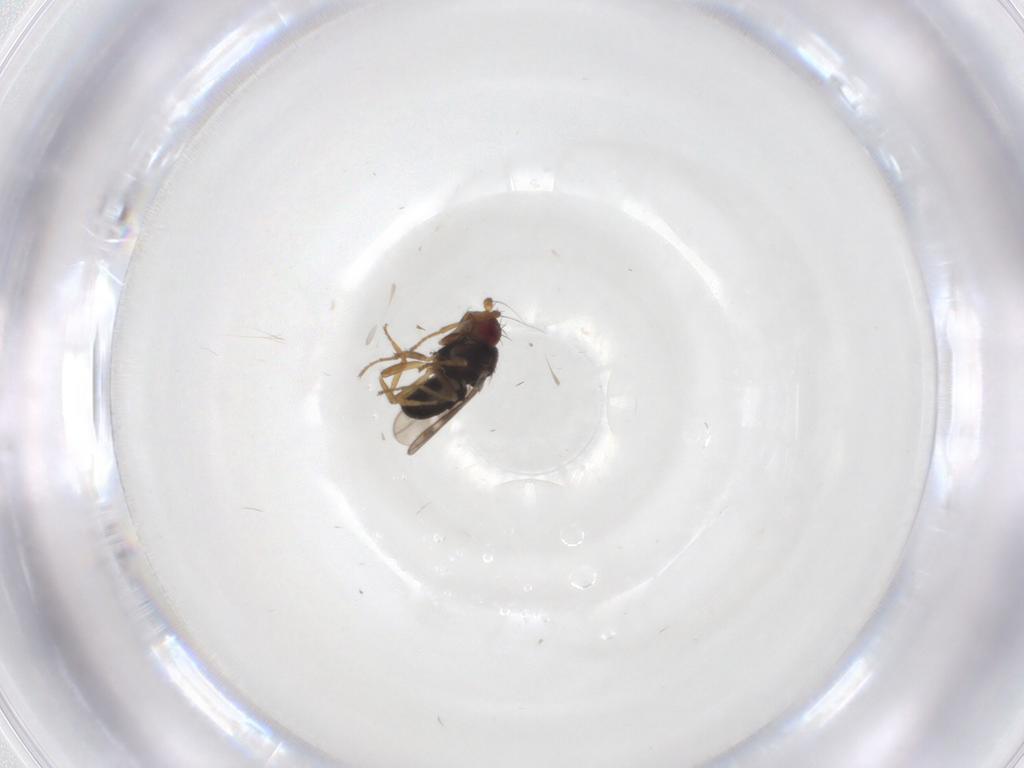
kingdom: Animalia
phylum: Arthropoda
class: Insecta
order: Diptera
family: Sphaeroceridae
